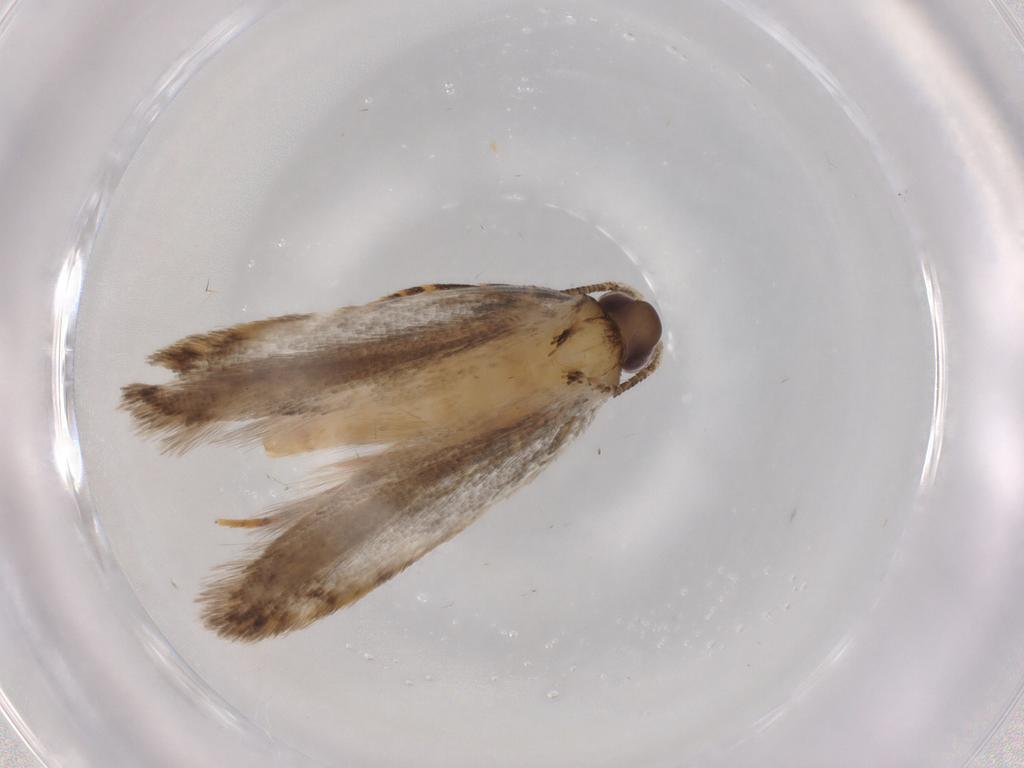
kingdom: Animalia
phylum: Arthropoda
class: Insecta
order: Lepidoptera
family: Autostichidae
